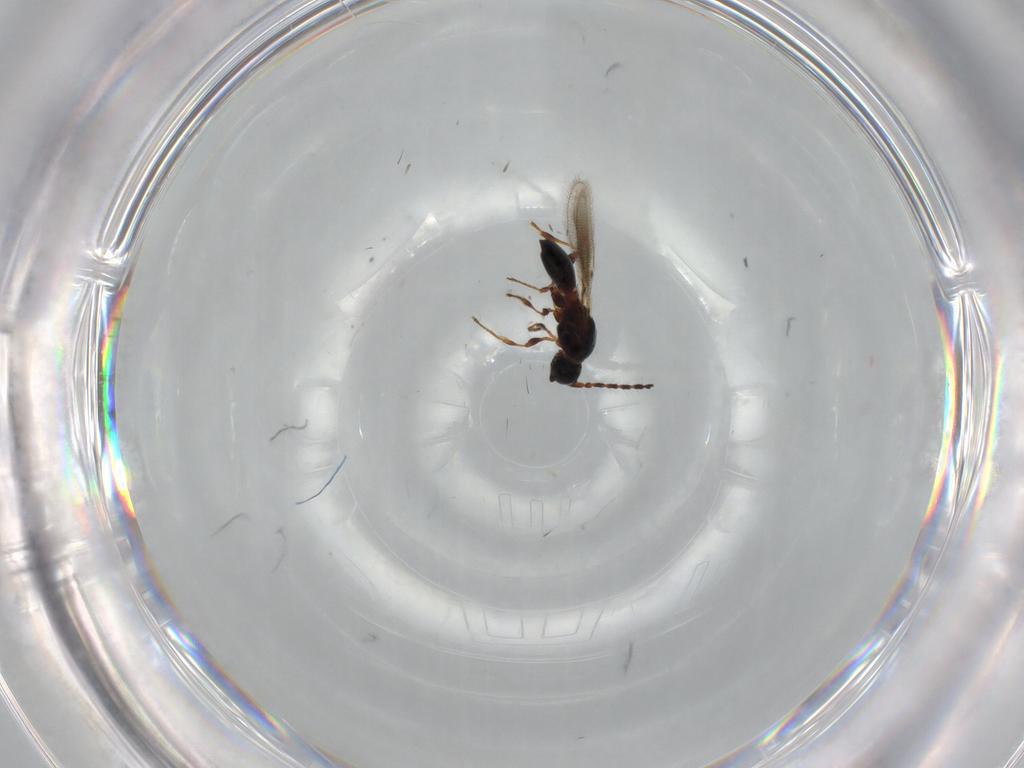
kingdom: Animalia
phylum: Arthropoda
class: Insecta
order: Hymenoptera
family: Diapriidae
